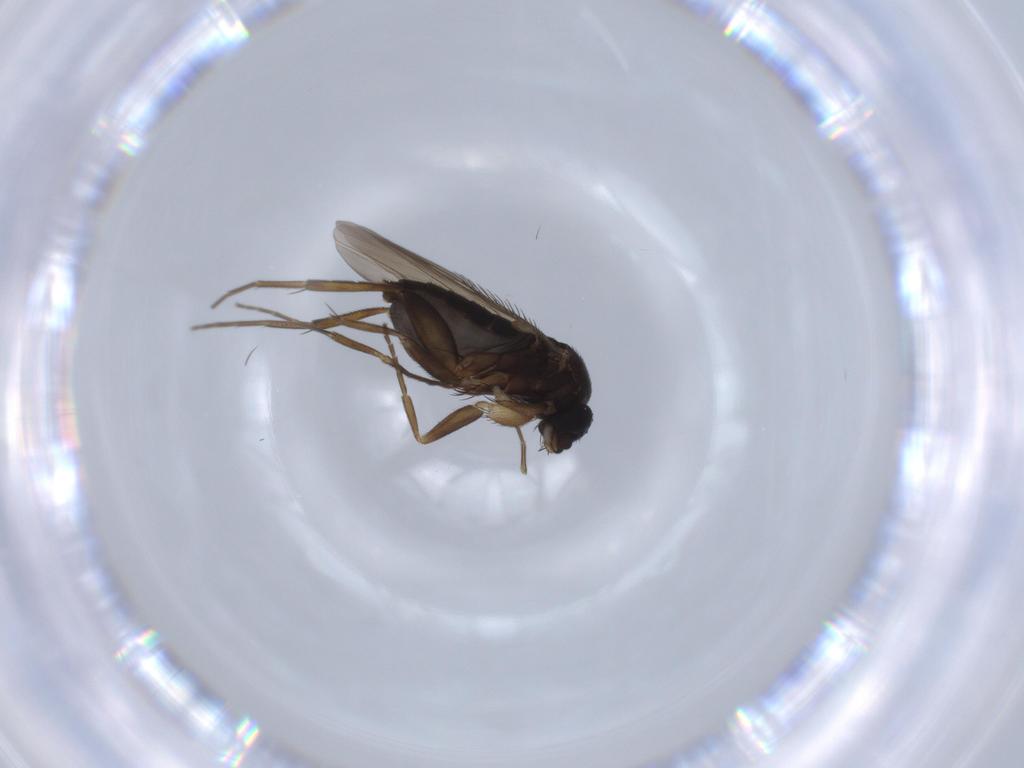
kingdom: Animalia
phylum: Arthropoda
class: Insecta
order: Diptera
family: Phoridae
